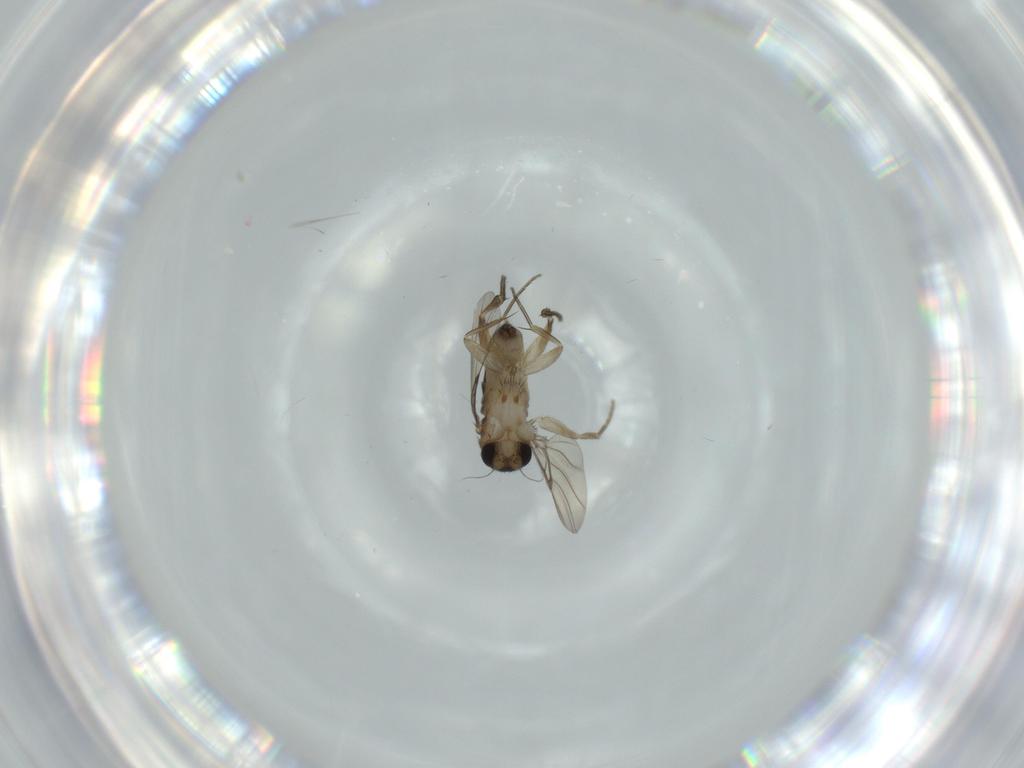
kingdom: Animalia
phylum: Arthropoda
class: Insecta
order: Diptera
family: Phoridae
